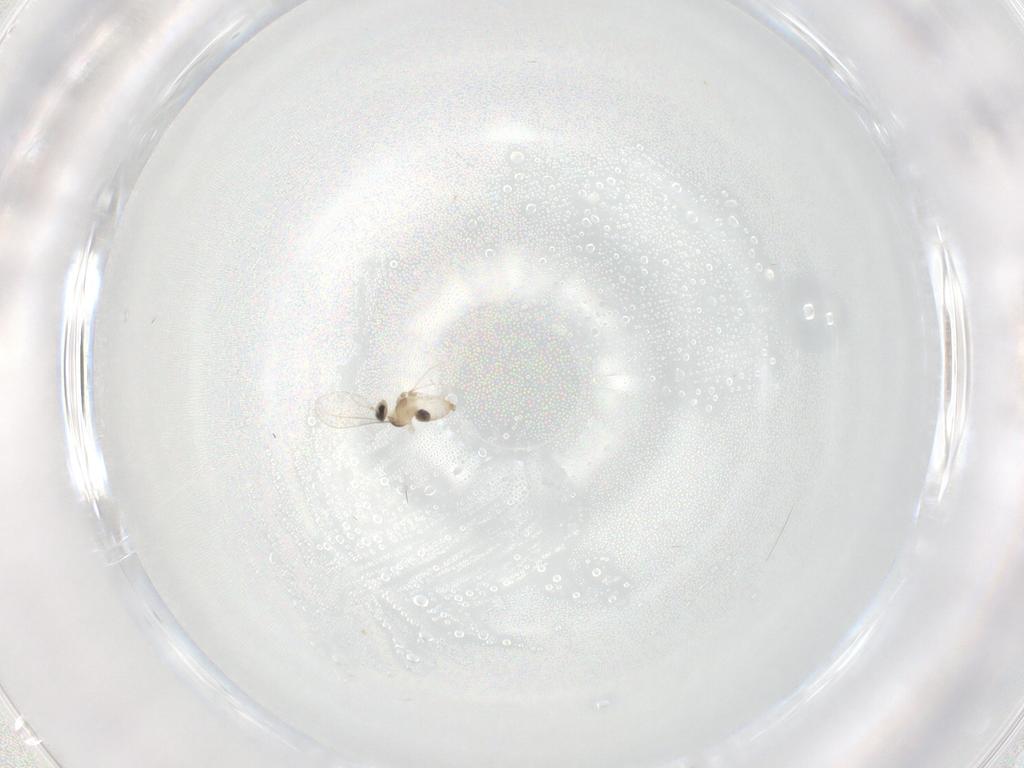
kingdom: Animalia
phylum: Arthropoda
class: Insecta
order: Diptera
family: Cecidomyiidae
